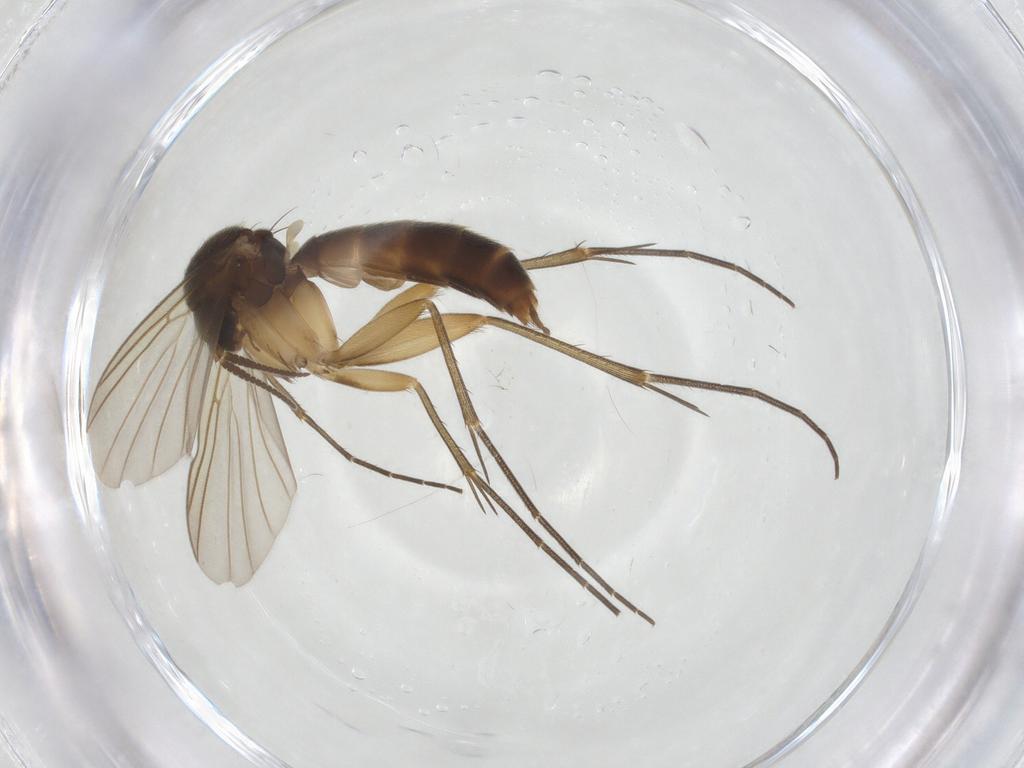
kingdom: Animalia
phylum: Arthropoda
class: Insecta
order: Diptera
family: Mycetophilidae
